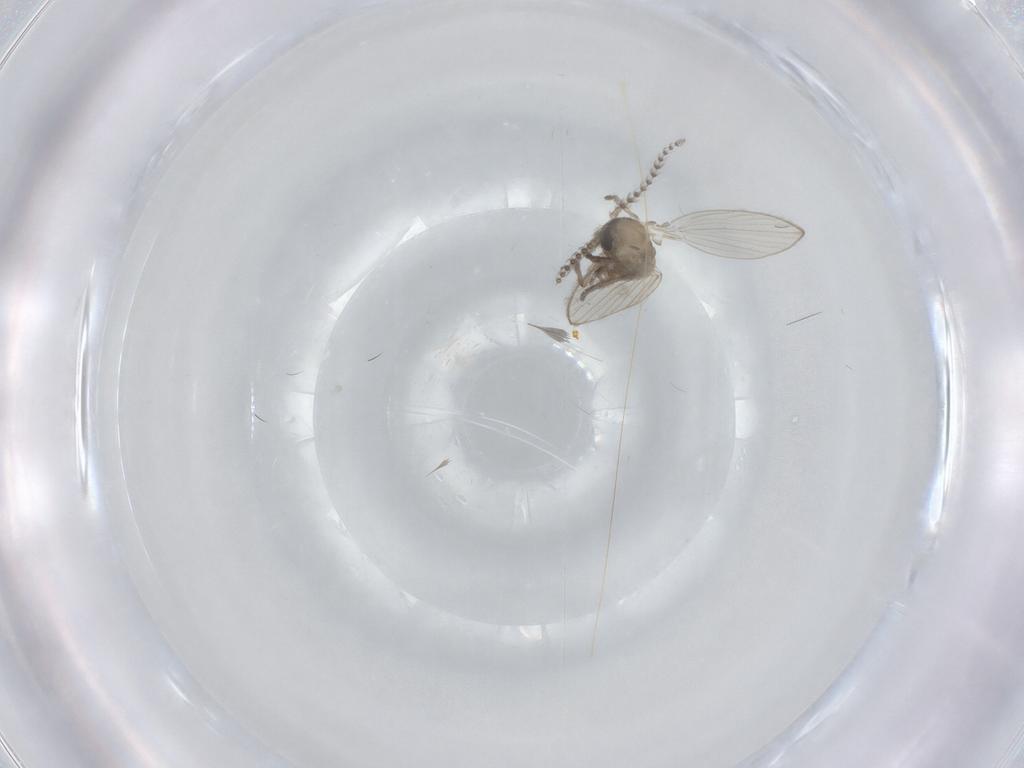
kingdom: Animalia
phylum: Arthropoda
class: Insecta
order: Diptera
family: Psychodidae
